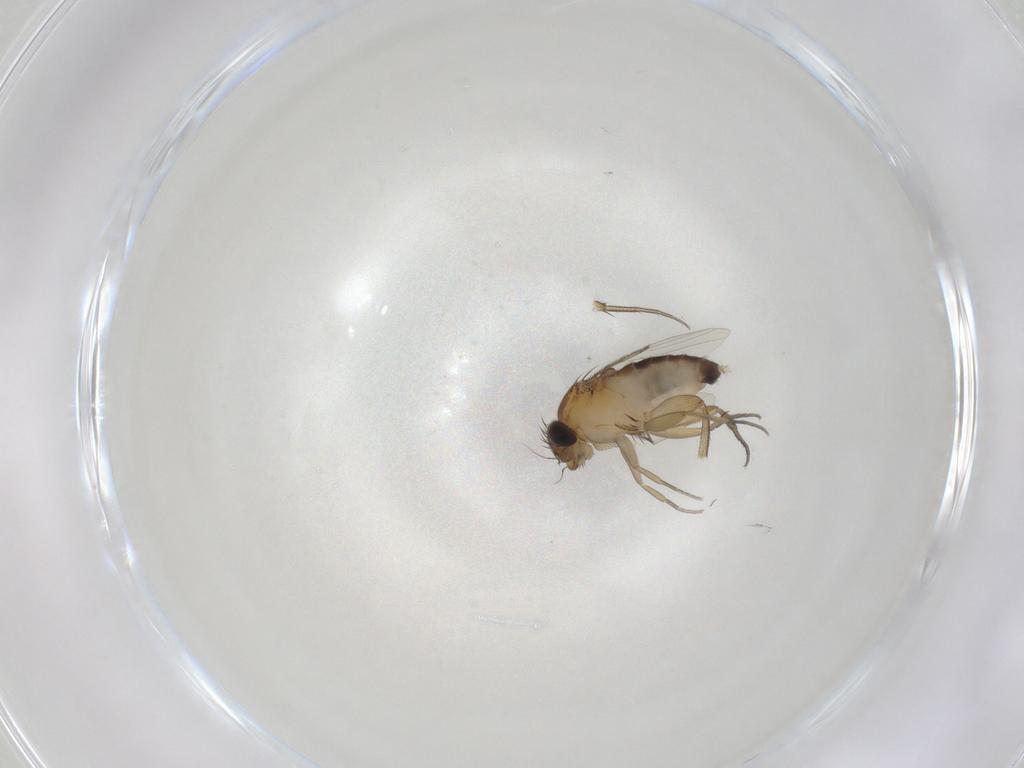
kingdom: Animalia
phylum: Arthropoda
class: Insecta
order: Diptera
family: Phoridae
